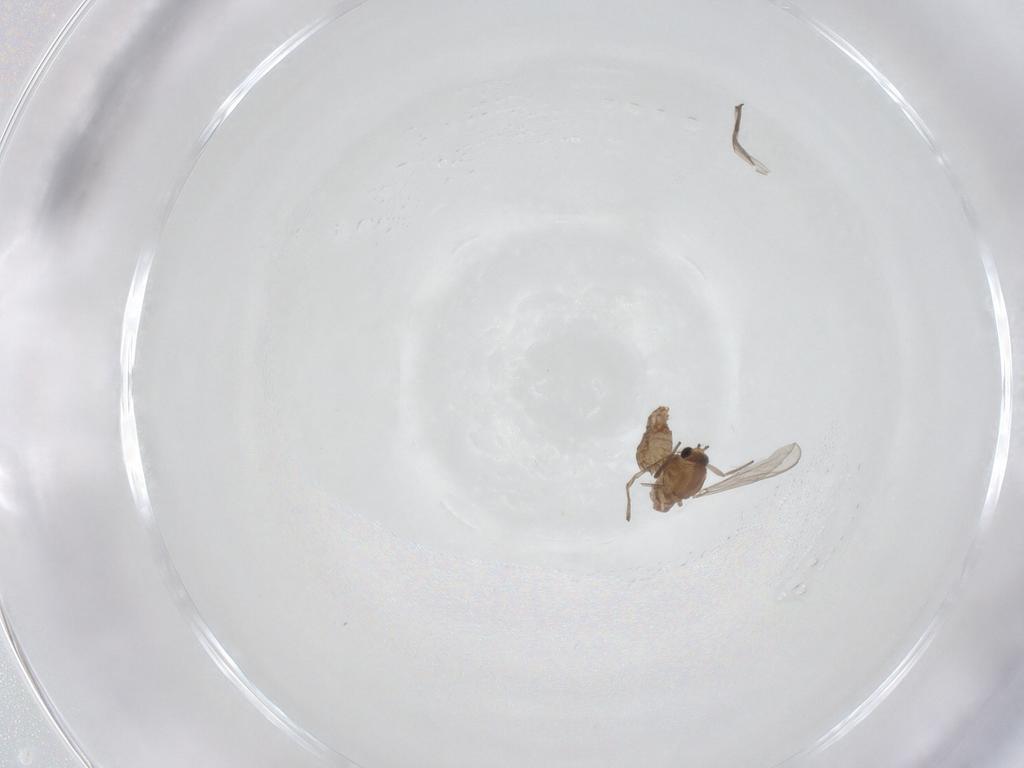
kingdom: Animalia
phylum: Arthropoda
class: Insecta
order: Diptera
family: Chironomidae
